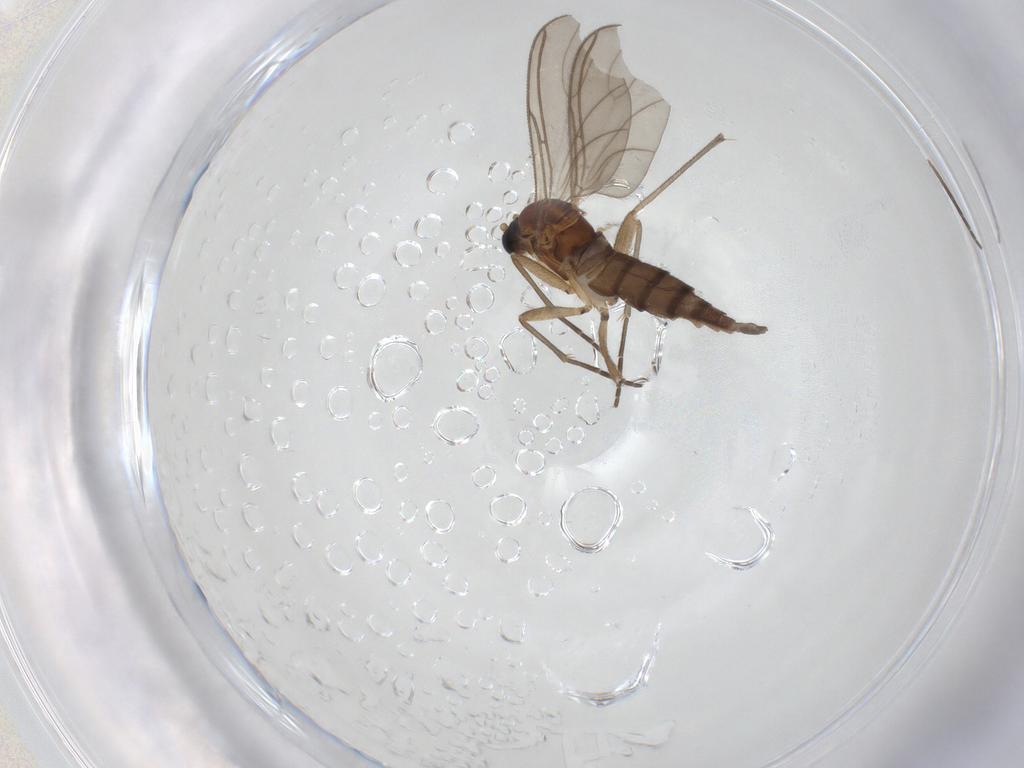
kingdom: Animalia
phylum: Arthropoda
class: Insecta
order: Diptera
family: Sciaridae
